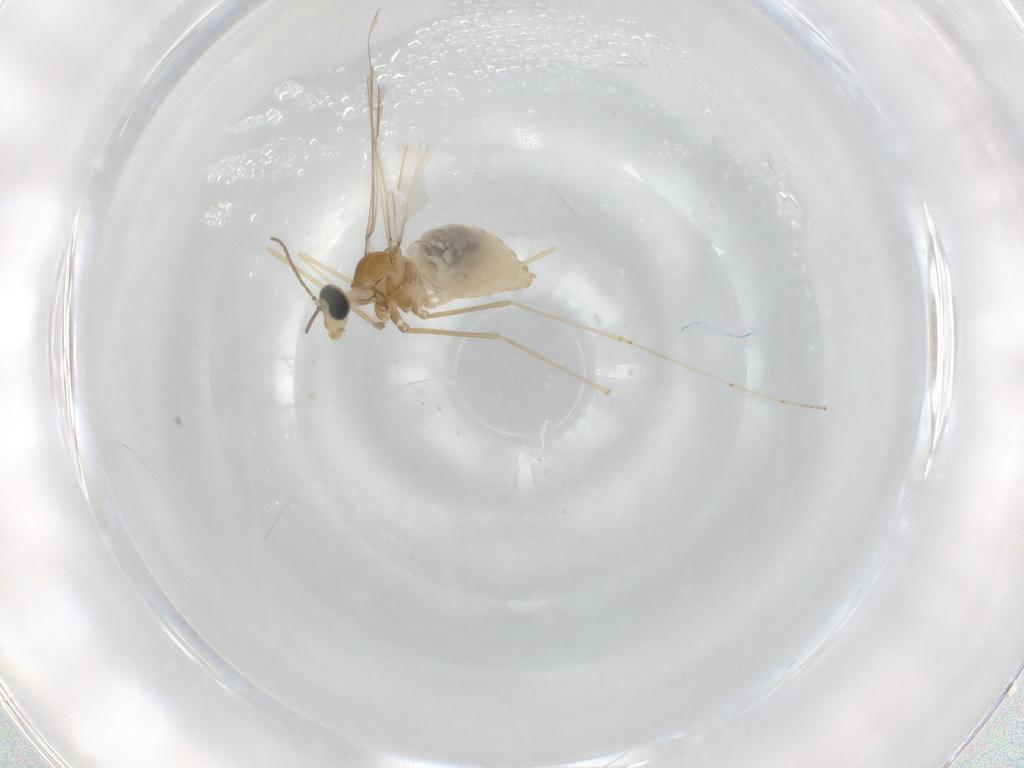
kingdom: Animalia
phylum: Arthropoda
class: Insecta
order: Diptera
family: Cecidomyiidae
